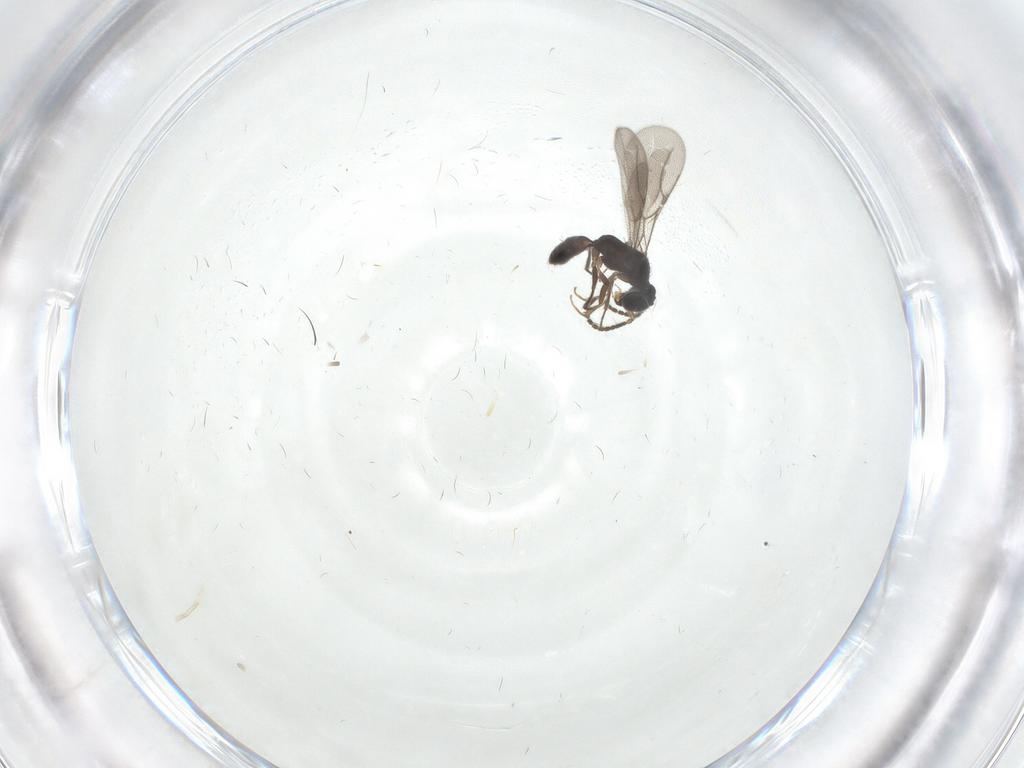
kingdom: Animalia
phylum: Arthropoda
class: Insecta
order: Hymenoptera
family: Bethylidae
